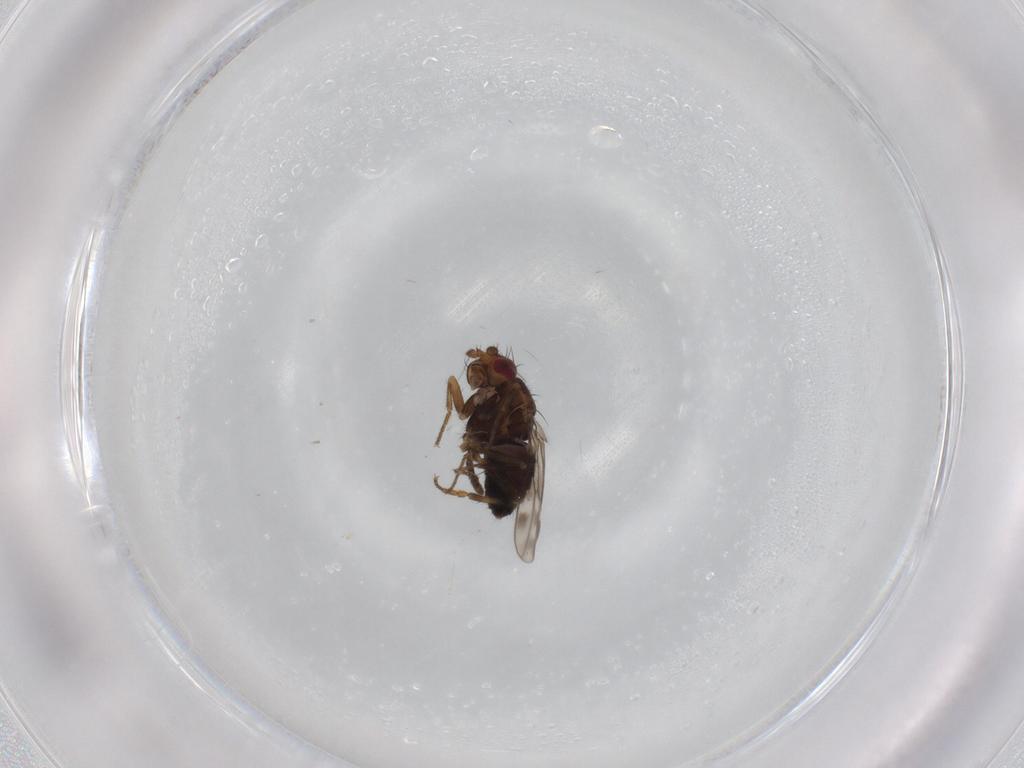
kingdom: Animalia
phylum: Arthropoda
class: Insecta
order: Diptera
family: Sphaeroceridae
